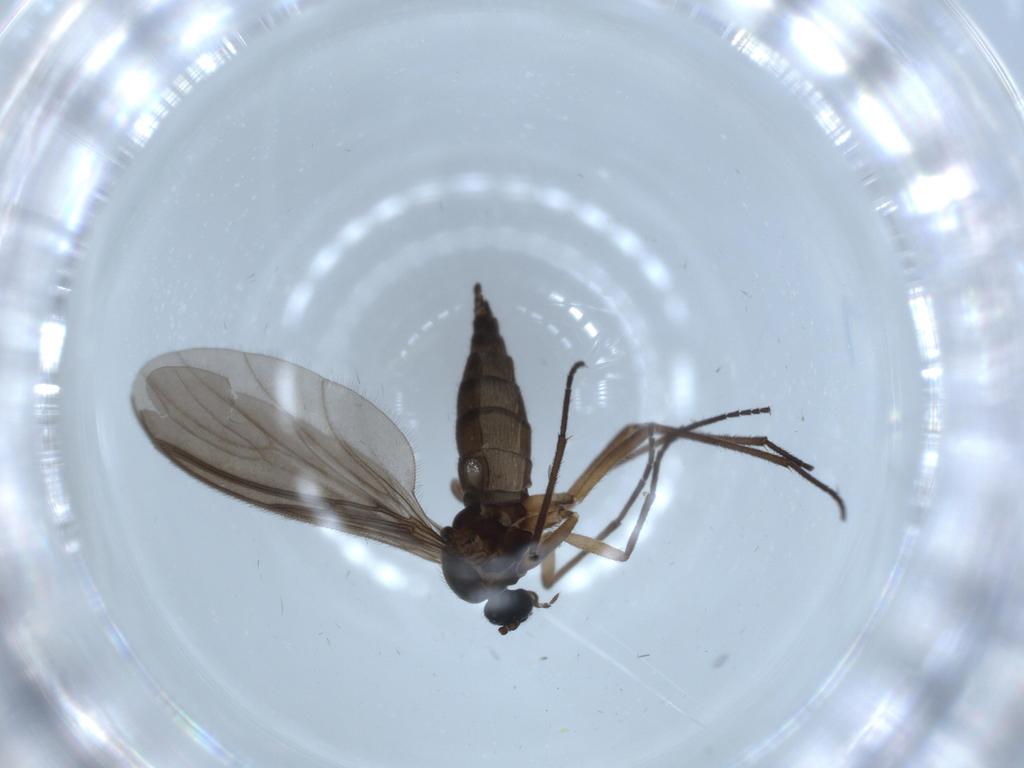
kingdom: Animalia
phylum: Arthropoda
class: Insecta
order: Diptera
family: Sciaridae
